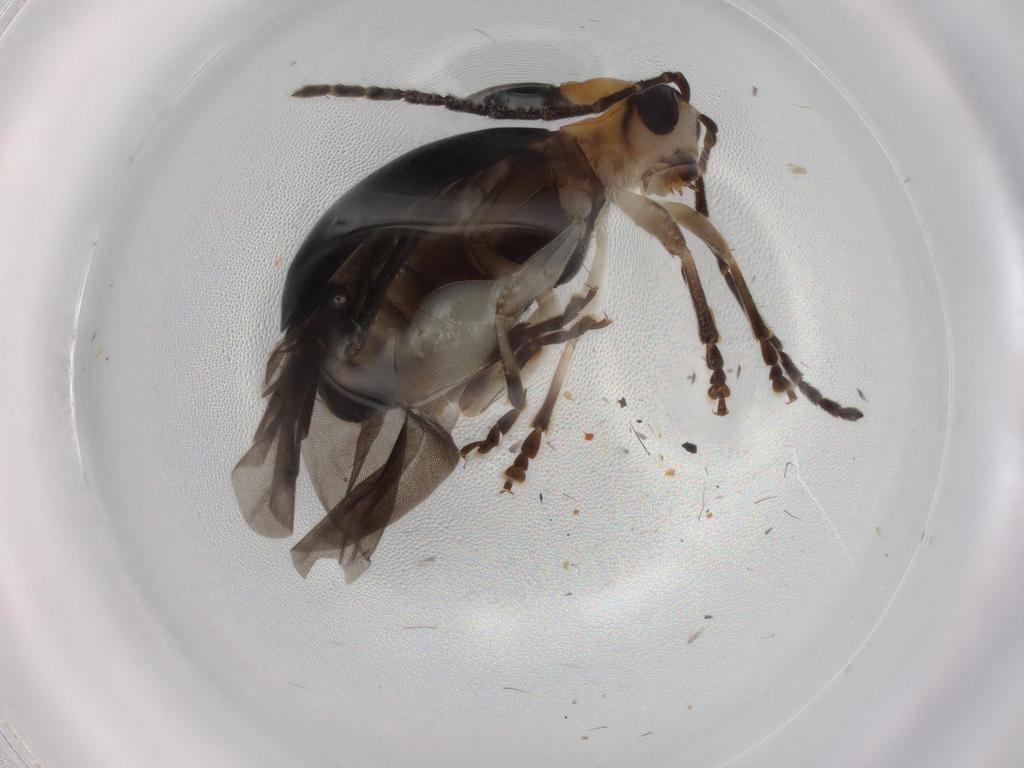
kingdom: Animalia
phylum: Arthropoda
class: Insecta
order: Coleoptera
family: Chrysomelidae
